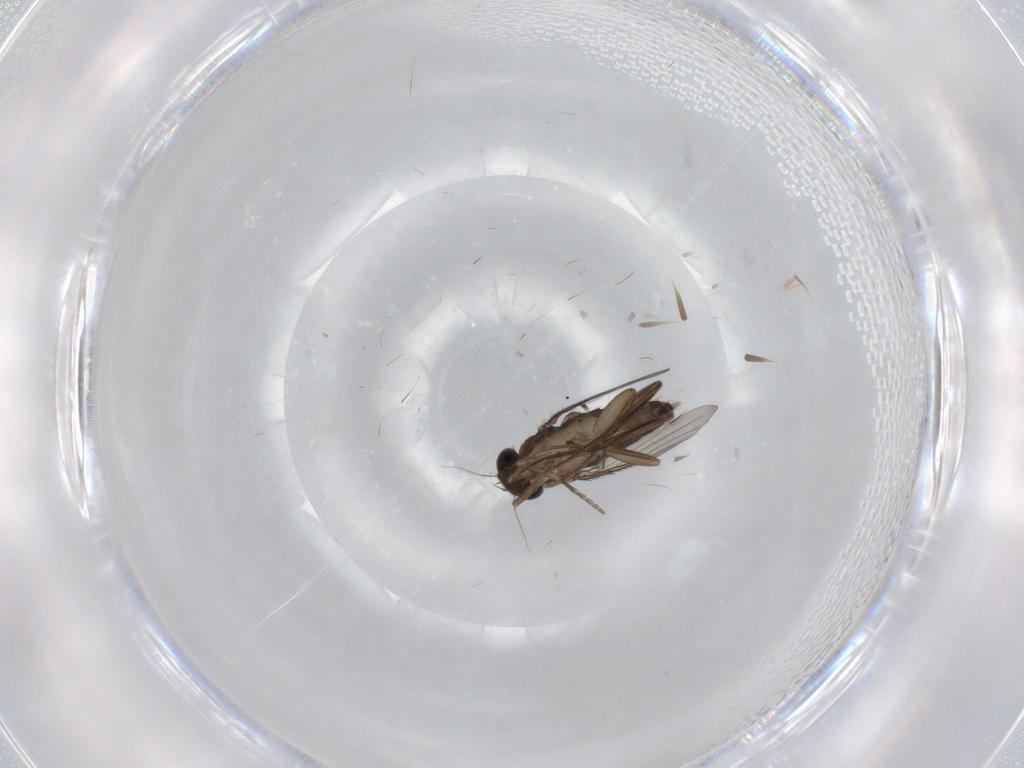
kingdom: Animalia
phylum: Arthropoda
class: Insecta
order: Diptera
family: Phoridae
